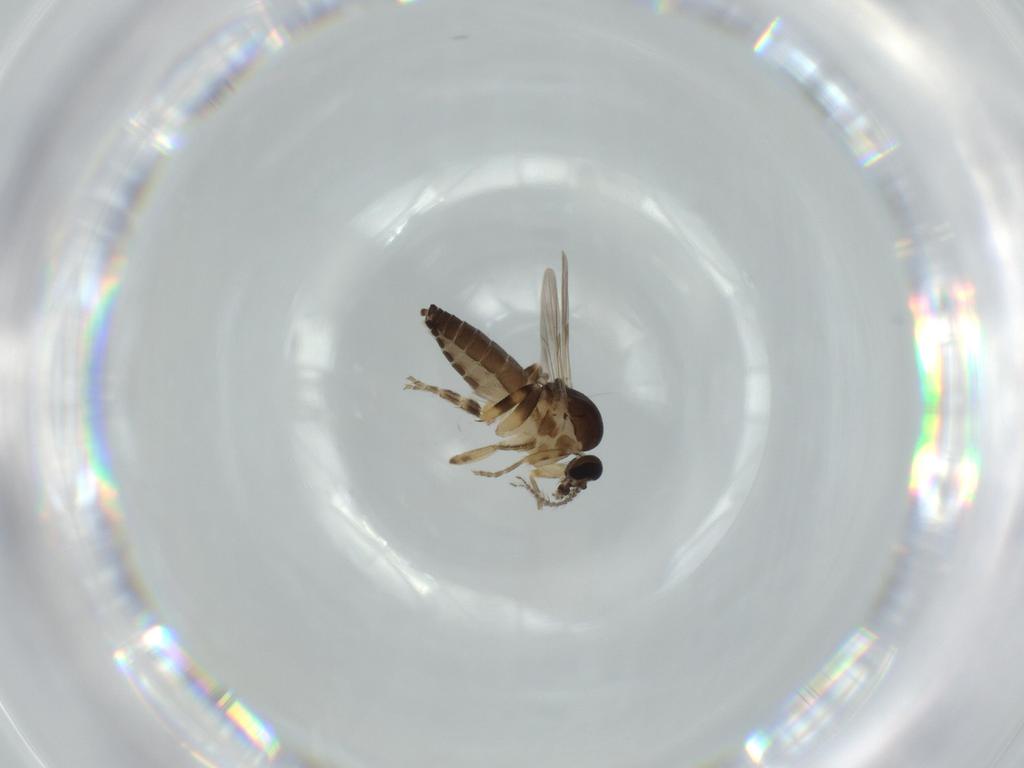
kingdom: Animalia
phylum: Arthropoda
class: Insecta
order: Diptera
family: Ceratopogonidae
